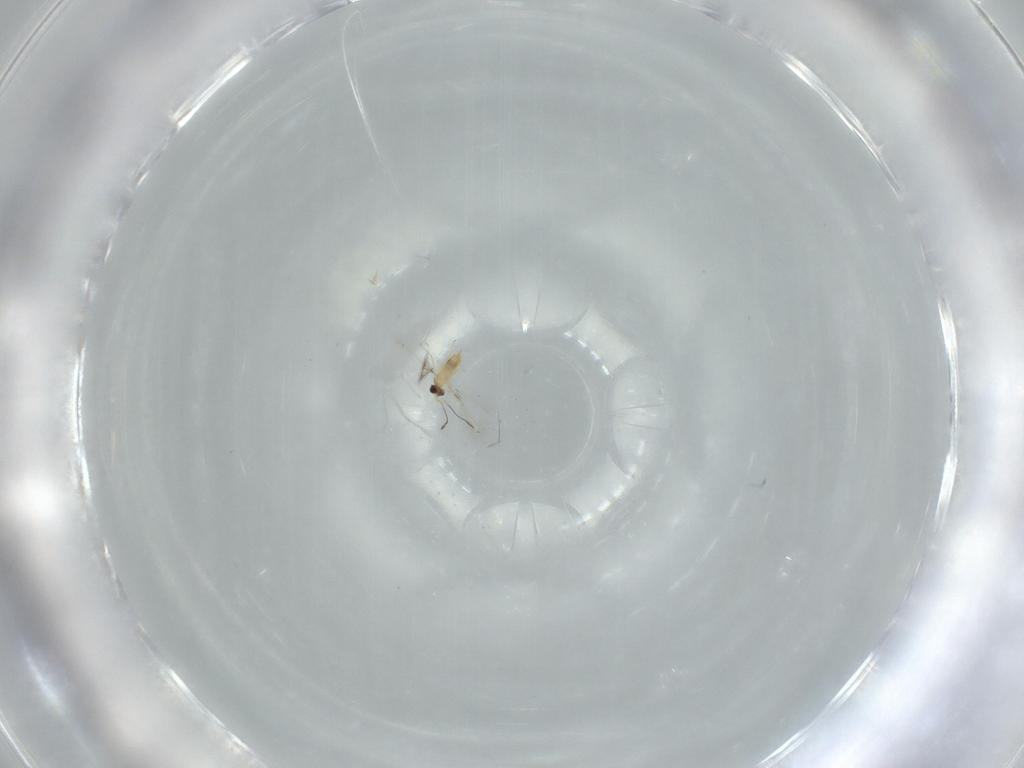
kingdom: Animalia
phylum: Arthropoda
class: Insecta
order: Hymenoptera
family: Mymaridae
